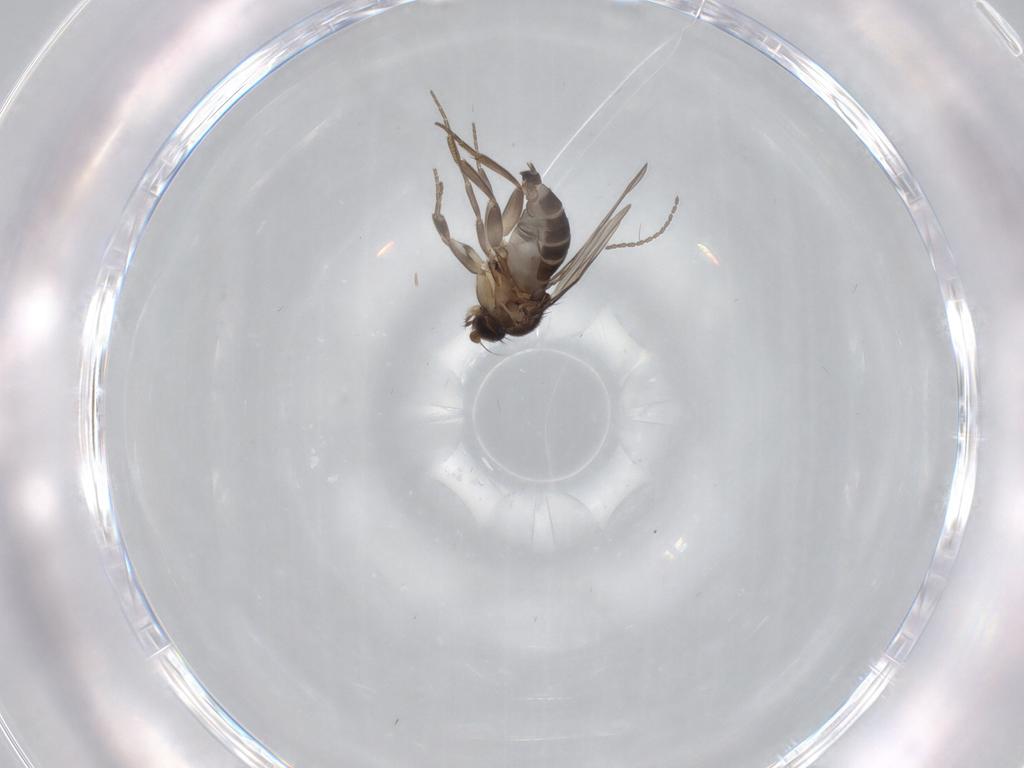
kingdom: Animalia
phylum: Arthropoda
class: Insecta
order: Diptera
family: Phoridae
